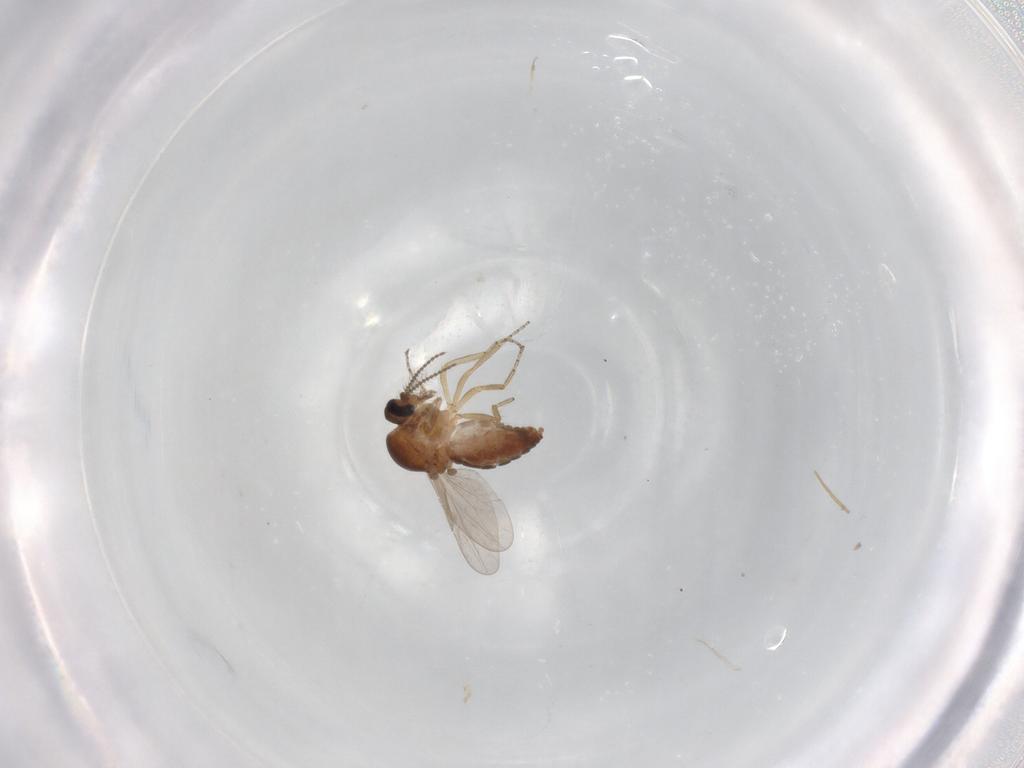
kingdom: Animalia
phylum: Arthropoda
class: Insecta
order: Diptera
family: Ceratopogonidae
